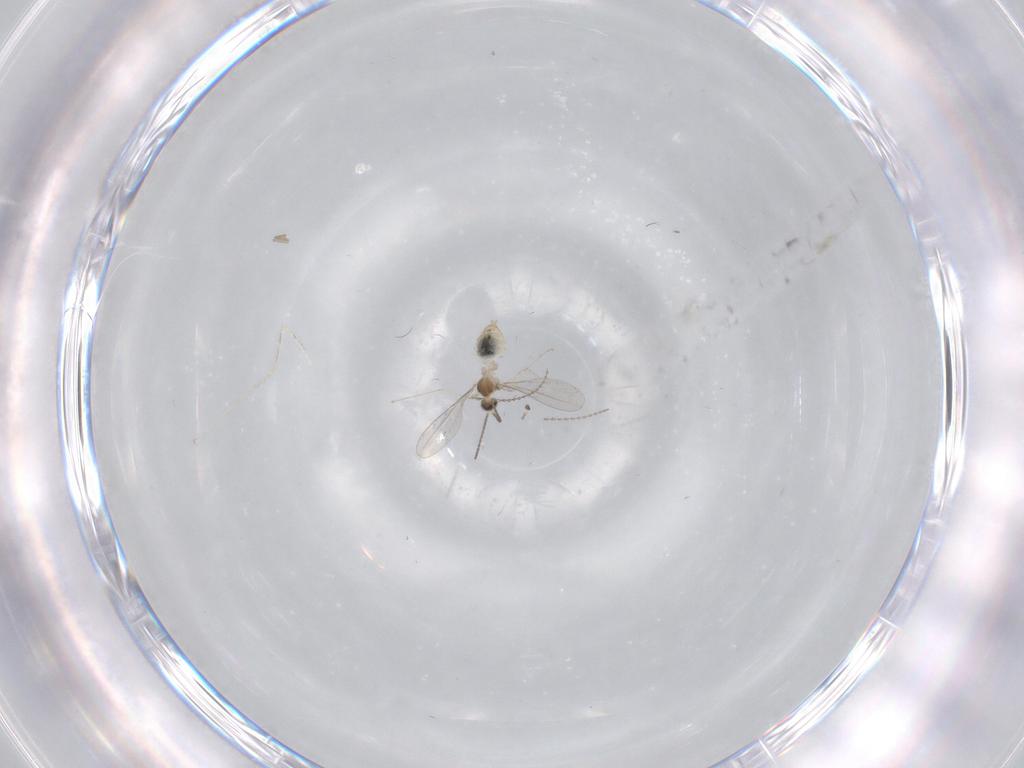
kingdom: Animalia
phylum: Arthropoda
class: Insecta
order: Diptera
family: Cecidomyiidae
